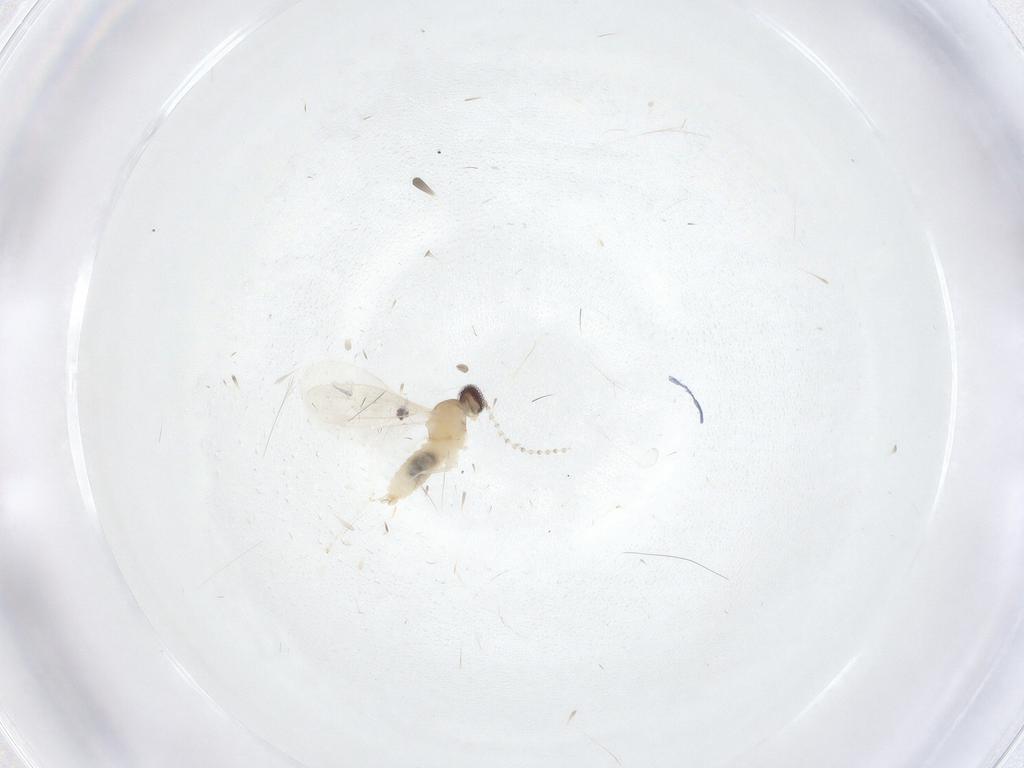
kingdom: Animalia
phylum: Arthropoda
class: Insecta
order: Diptera
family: Cecidomyiidae
